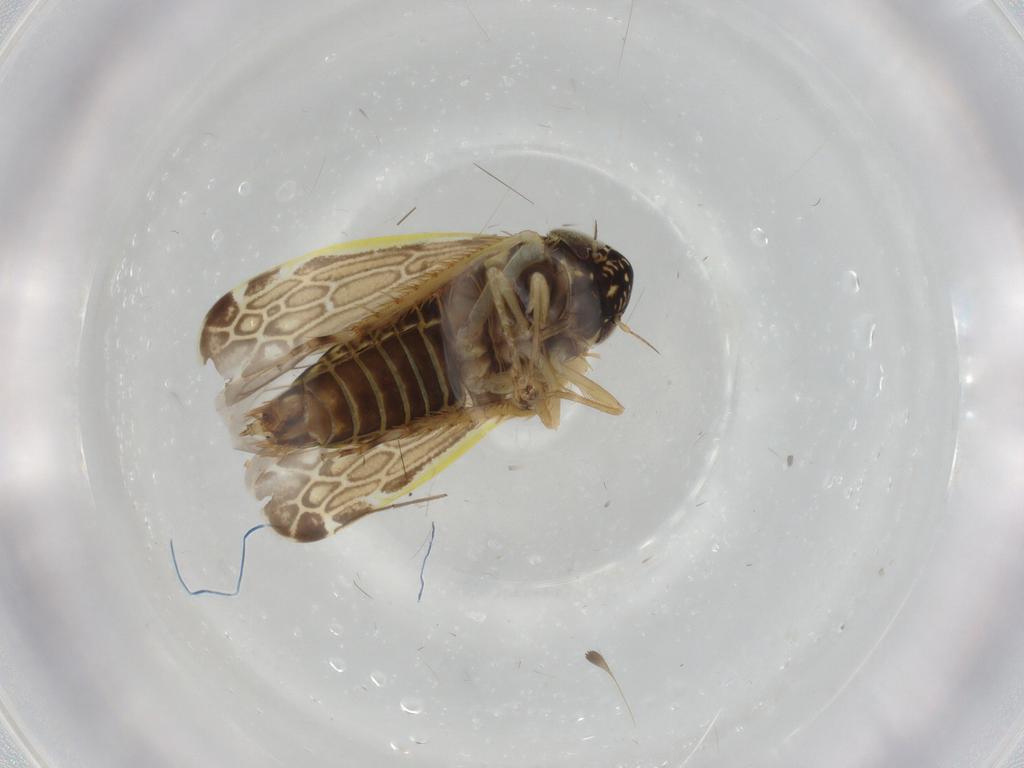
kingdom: Animalia
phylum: Arthropoda
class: Insecta
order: Hemiptera
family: Cicadellidae
